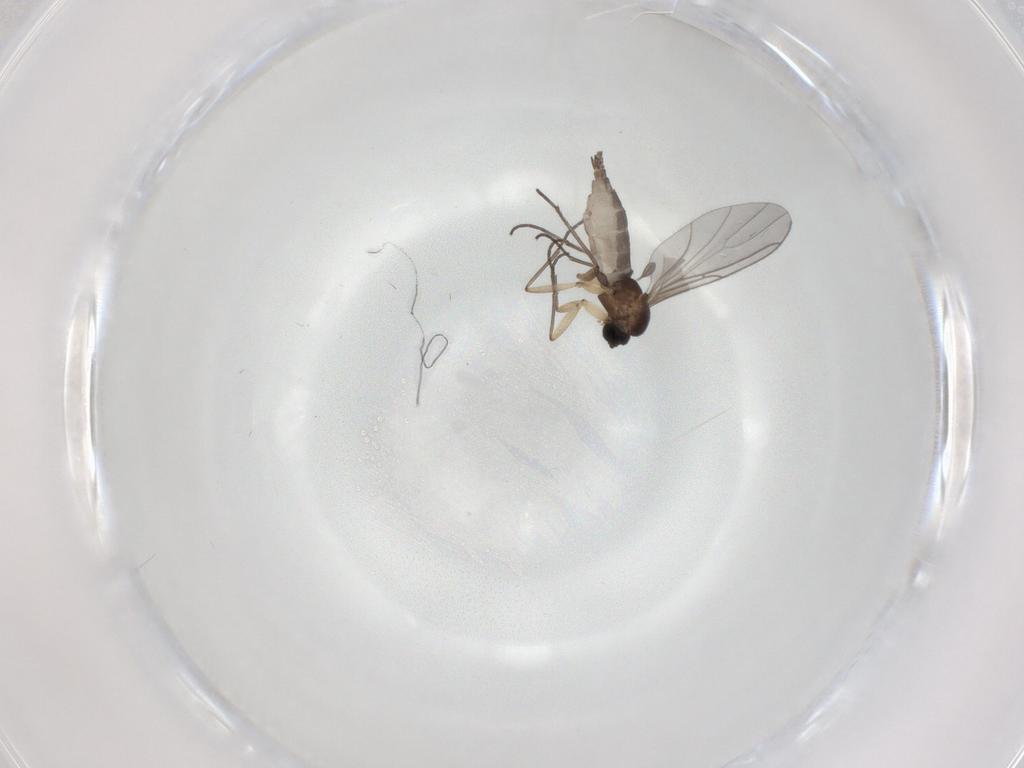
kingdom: Animalia
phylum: Arthropoda
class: Insecta
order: Diptera
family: Sciaridae
